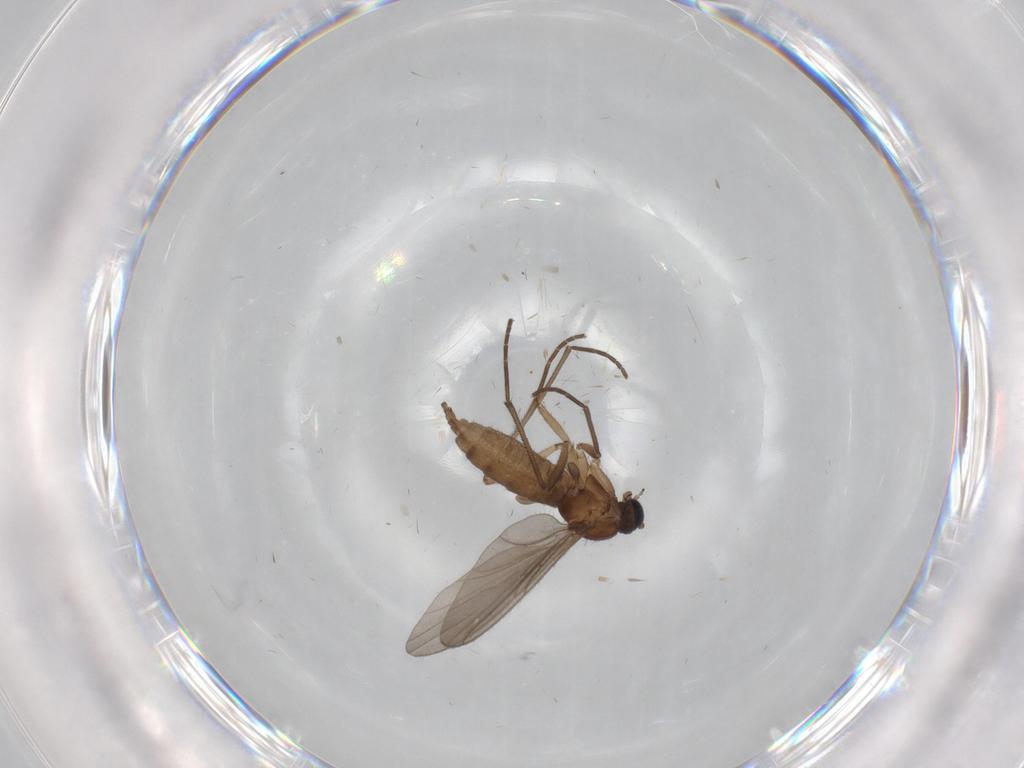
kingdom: Animalia
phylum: Arthropoda
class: Insecta
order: Diptera
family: Sciaridae
